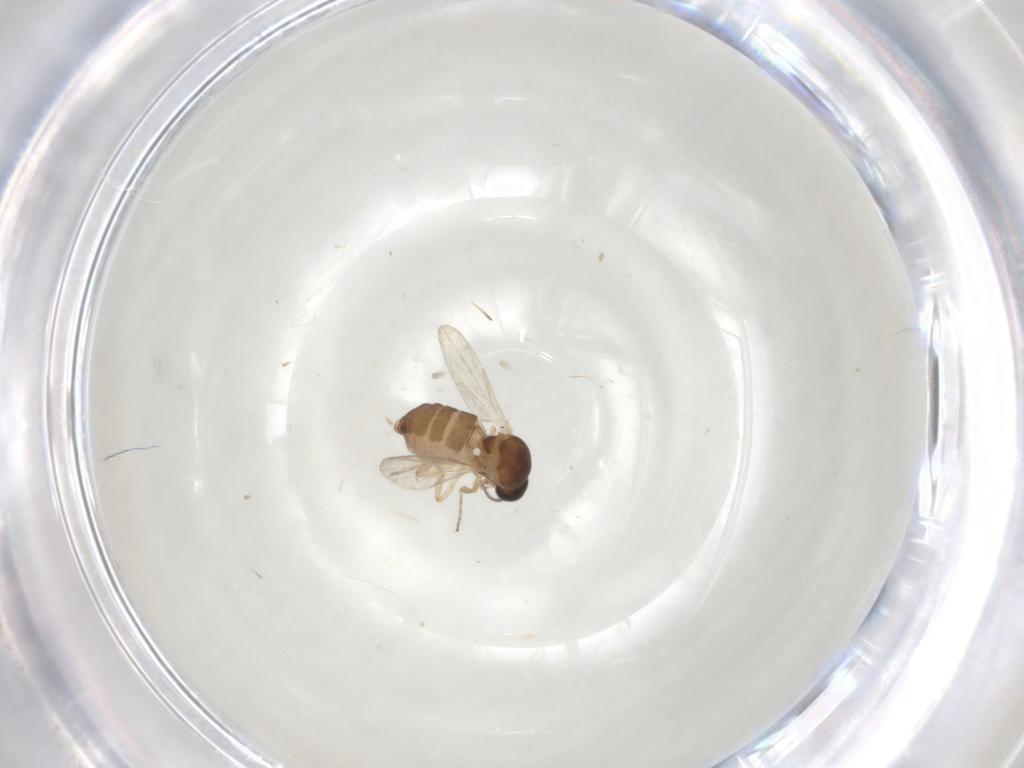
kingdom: Animalia
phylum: Arthropoda
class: Insecta
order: Diptera
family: Ceratopogonidae
